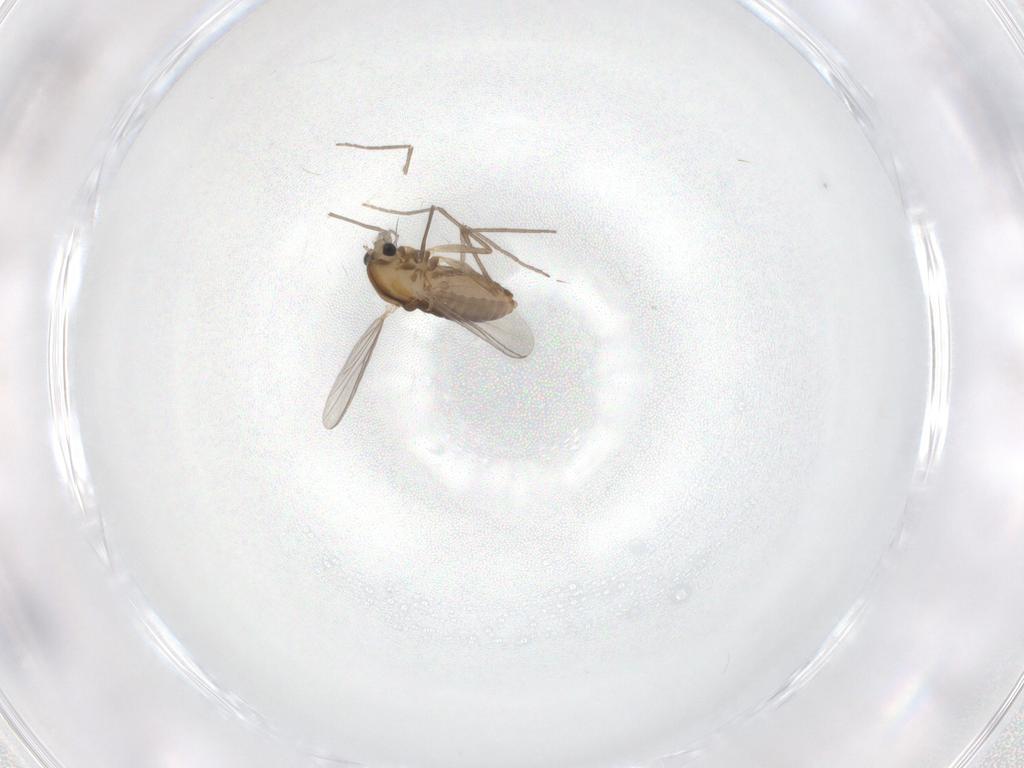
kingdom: Animalia
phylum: Arthropoda
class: Insecta
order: Diptera
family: Chironomidae
